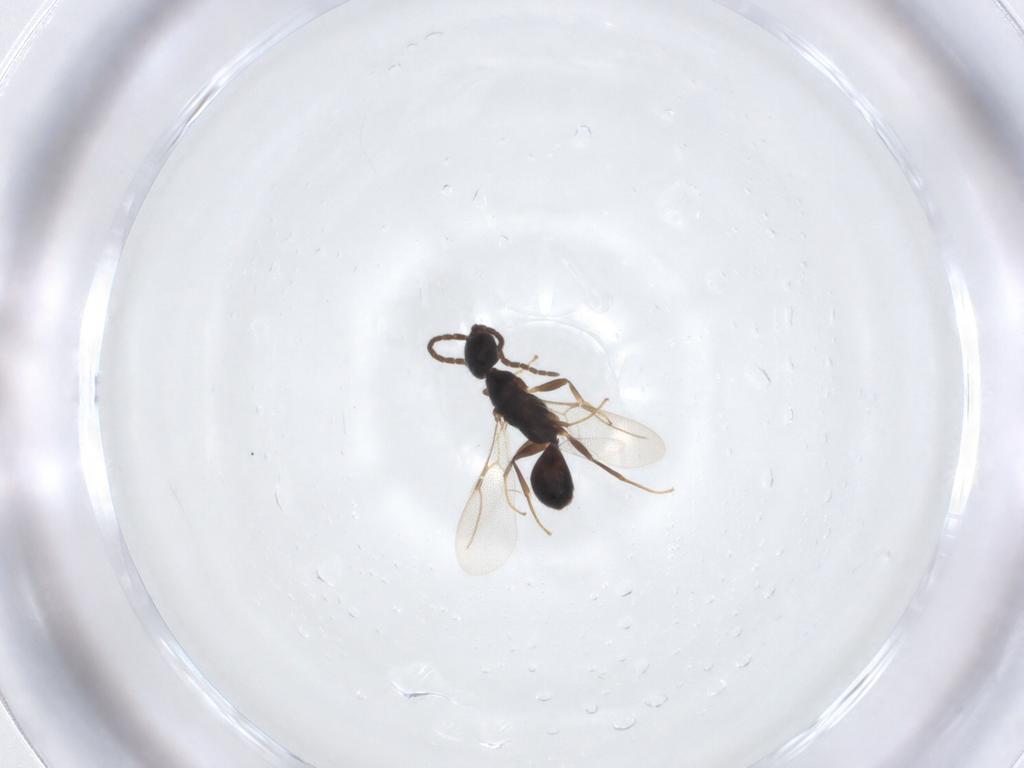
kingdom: Animalia
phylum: Arthropoda
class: Insecta
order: Hymenoptera
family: Bethylidae
